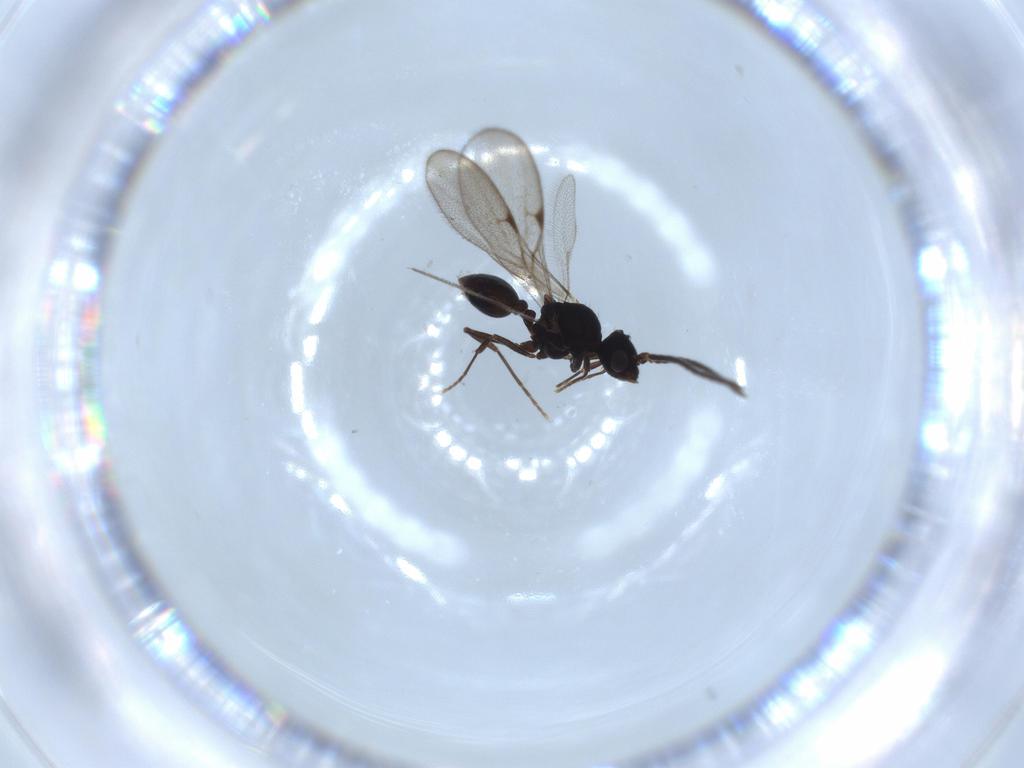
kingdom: Animalia
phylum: Arthropoda
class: Insecta
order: Hymenoptera
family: Formicidae
